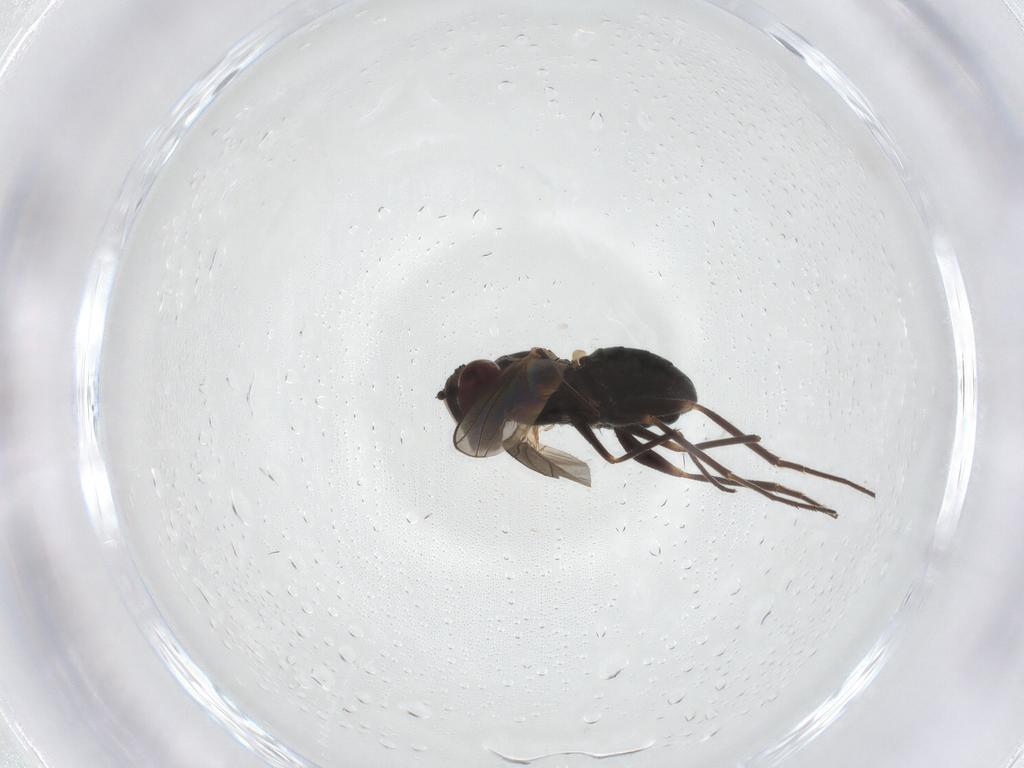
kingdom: Animalia
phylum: Arthropoda
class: Insecta
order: Diptera
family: Chloropidae
